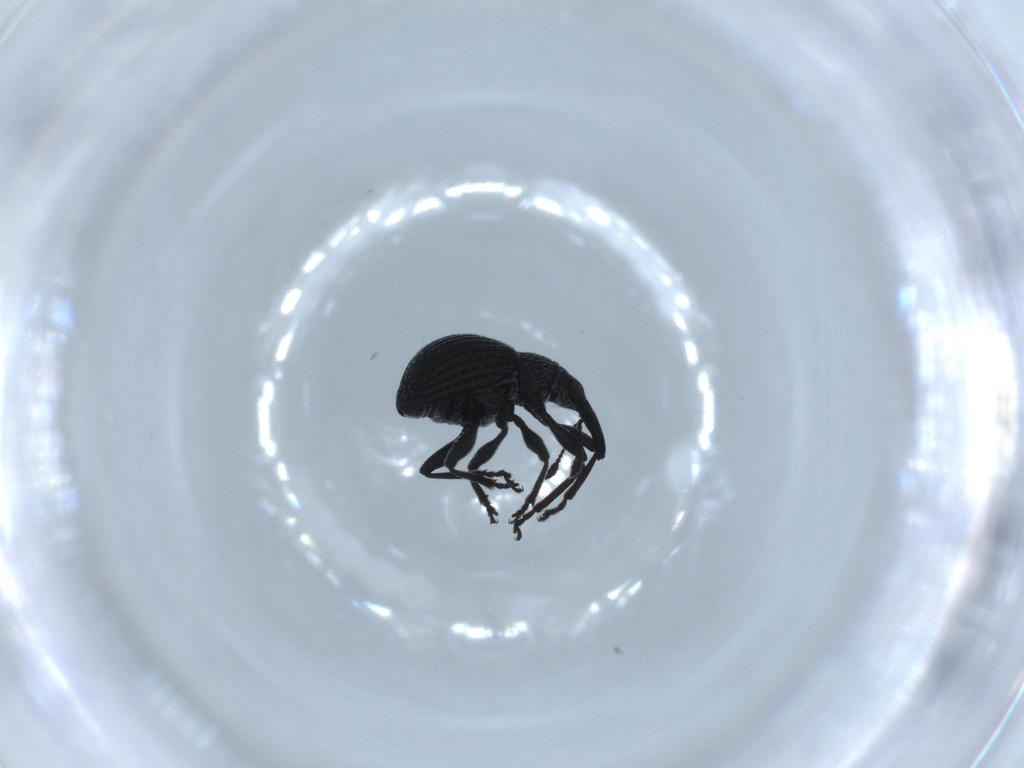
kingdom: Animalia
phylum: Arthropoda
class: Insecta
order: Coleoptera
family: Brentidae
